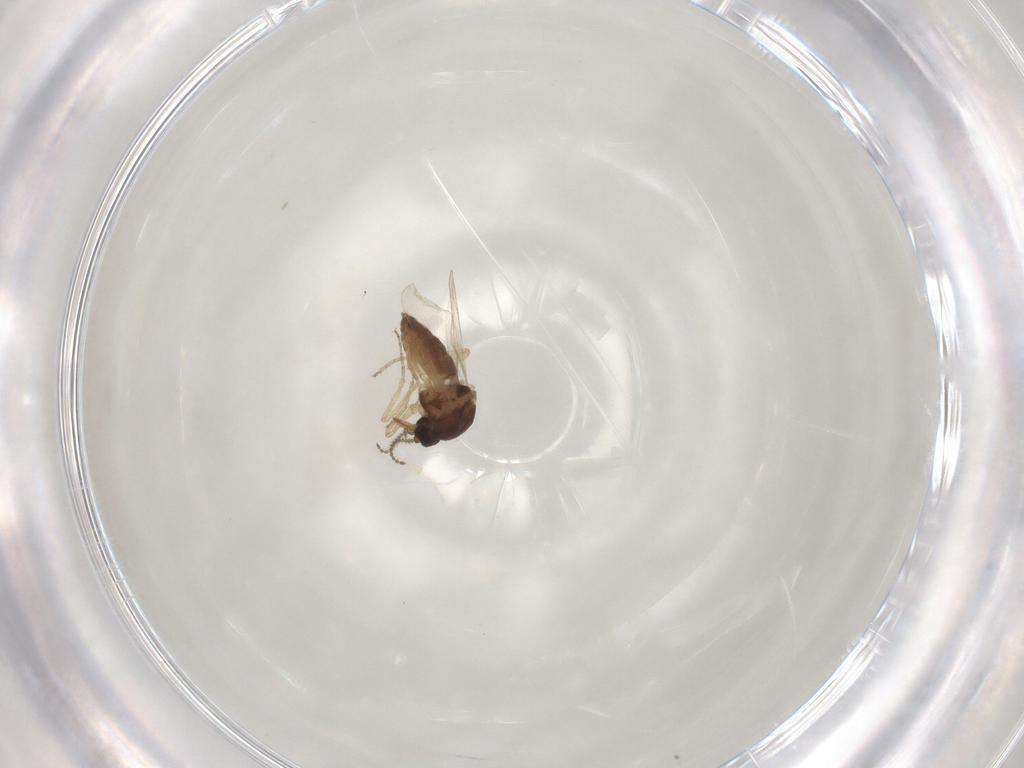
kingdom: Animalia
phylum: Arthropoda
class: Insecta
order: Diptera
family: Ceratopogonidae
